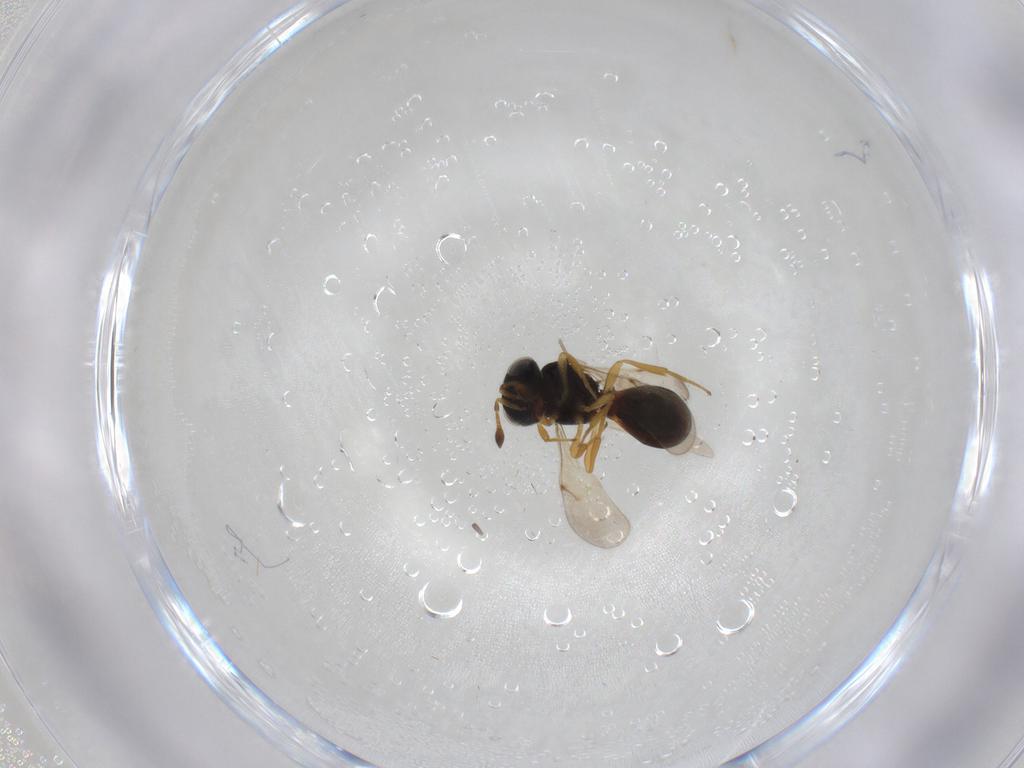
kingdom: Animalia
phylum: Arthropoda
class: Insecta
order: Hymenoptera
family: Scelionidae
